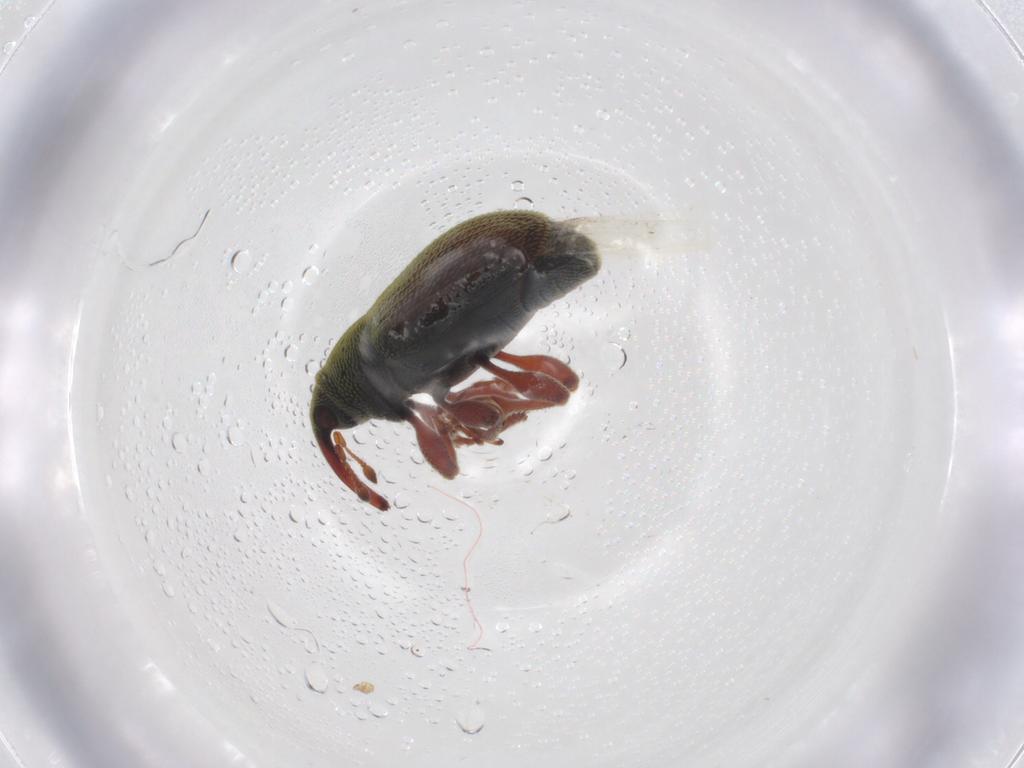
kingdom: Animalia
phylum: Arthropoda
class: Insecta
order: Coleoptera
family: Curculionidae
